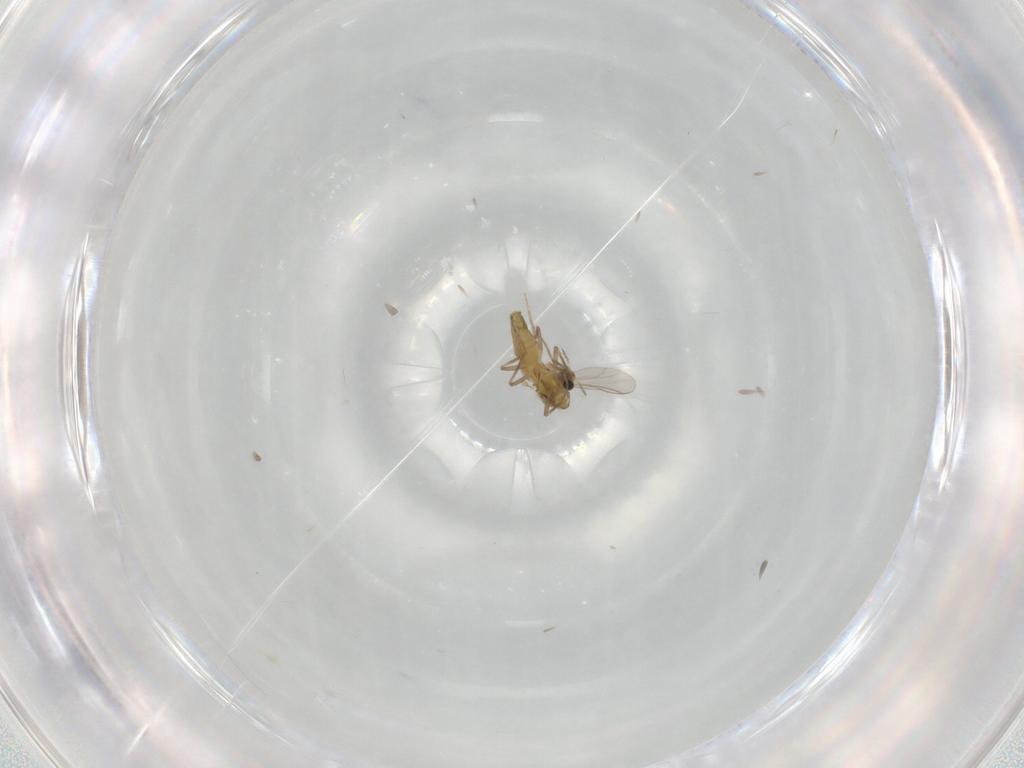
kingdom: Animalia
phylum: Arthropoda
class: Insecta
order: Diptera
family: Chironomidae
